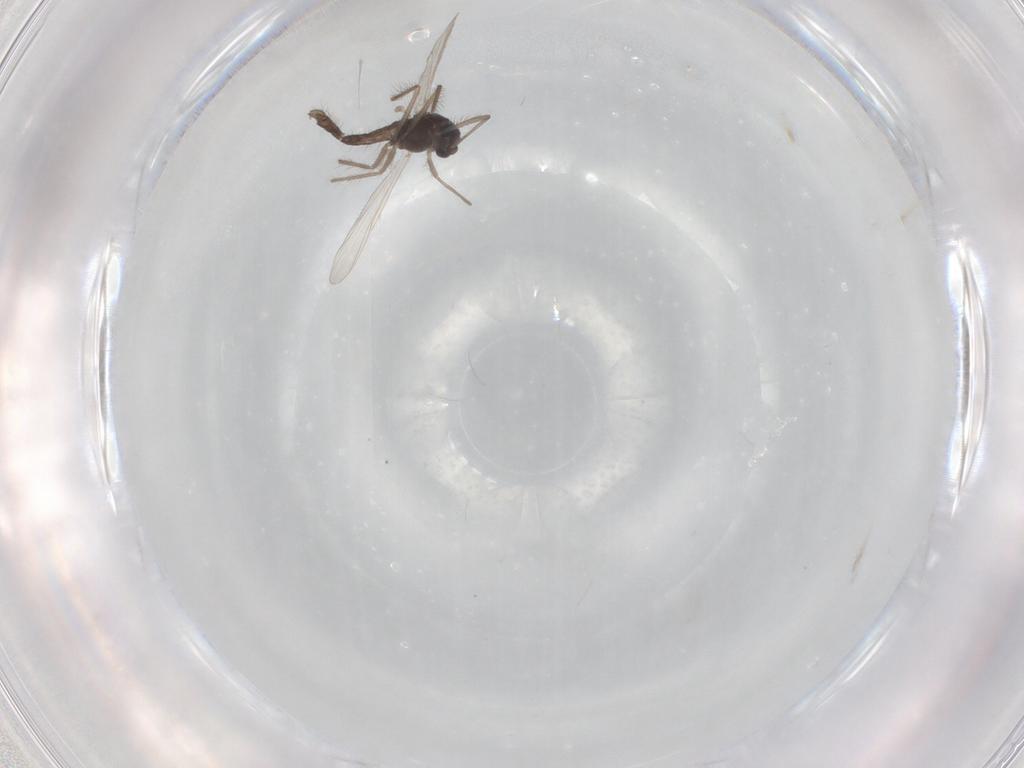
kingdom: Animalia
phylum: Arthropoda
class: Insecta
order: Diptera
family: Chironomidae
